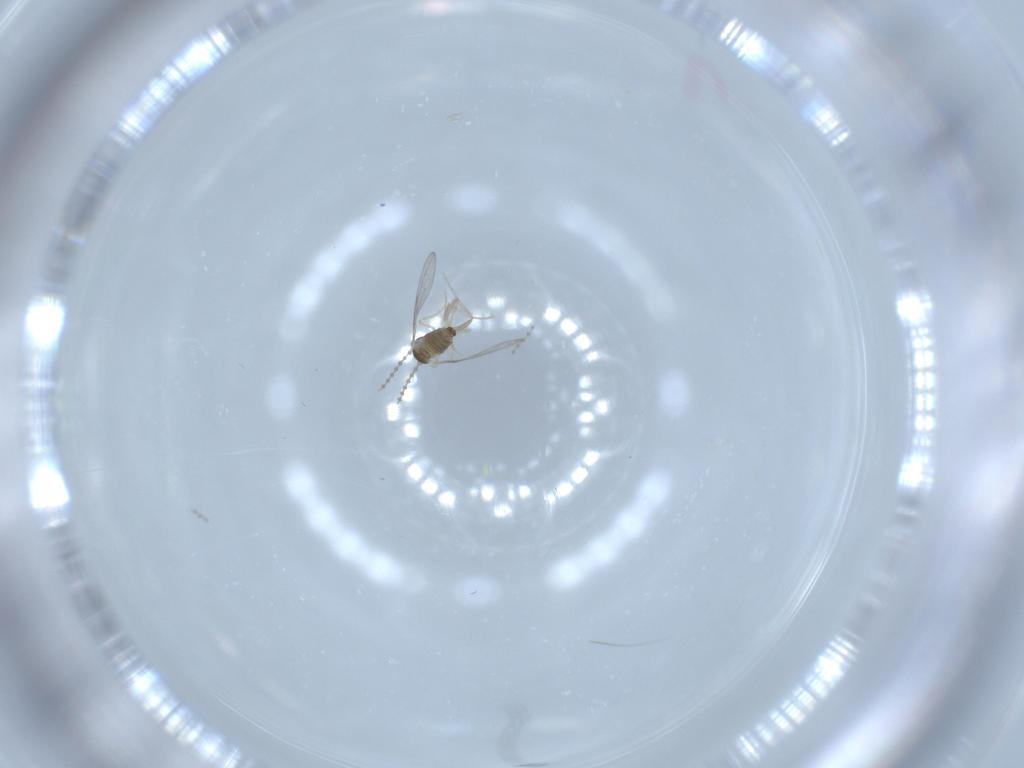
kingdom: Animalia
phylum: Arthropoda
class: Insecta
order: Diptera
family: Cecidomyiidae
